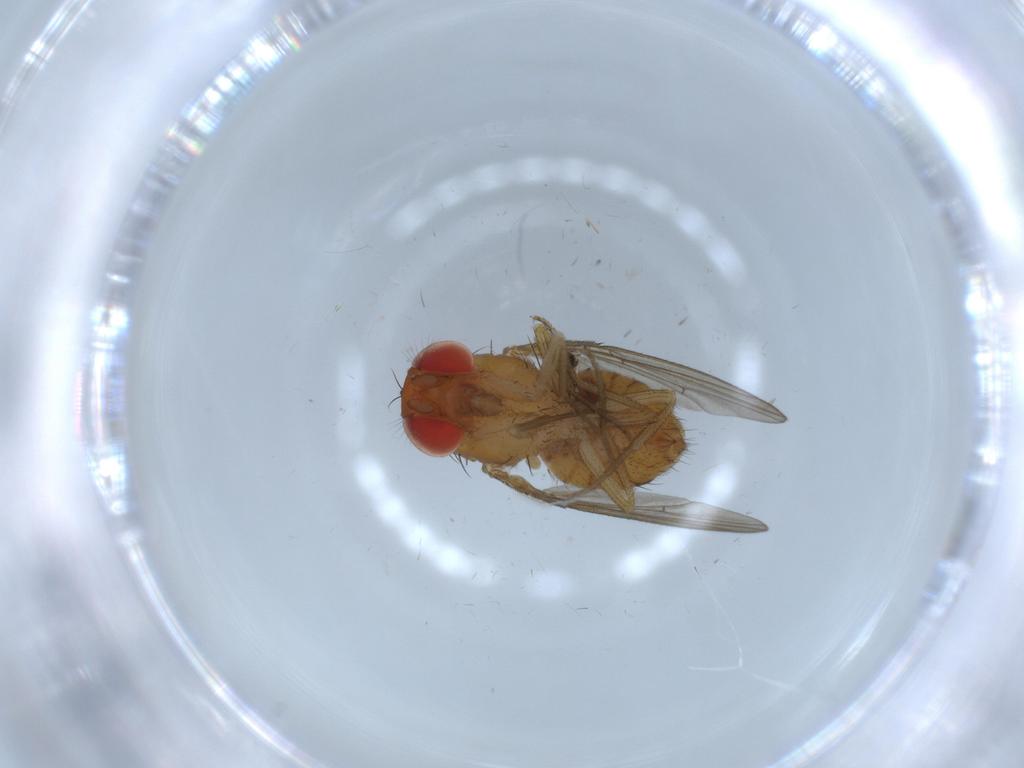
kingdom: Animalia
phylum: Arthropoda
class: Insecta
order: Diptera
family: Drosophilidae
